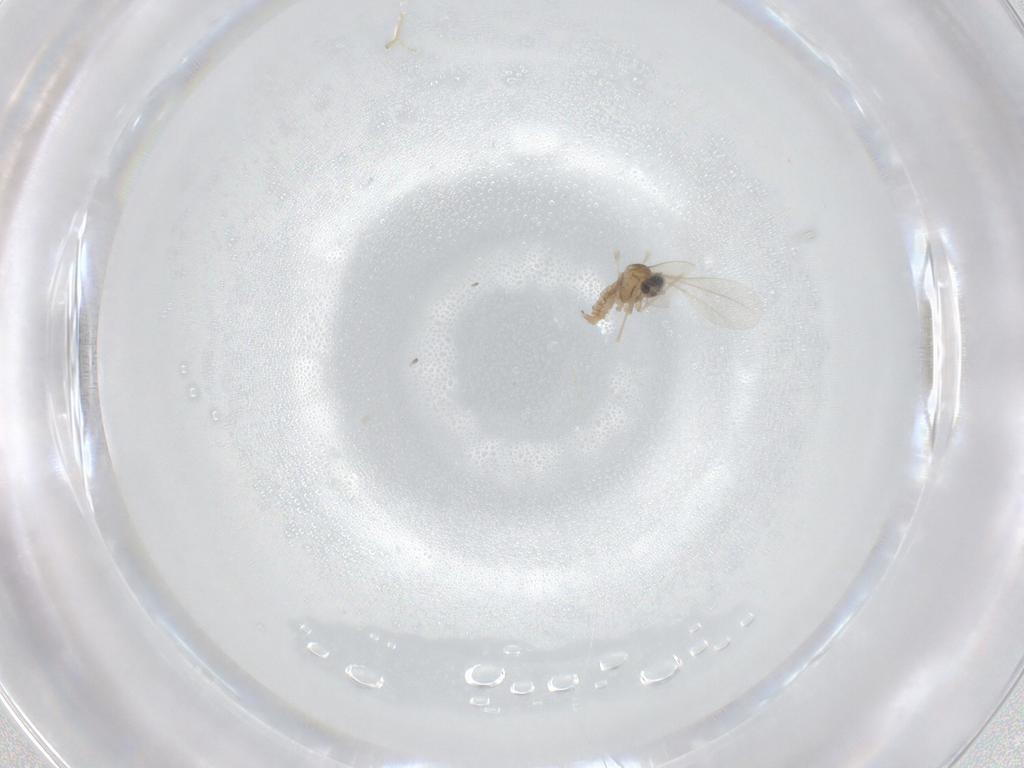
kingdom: Animalia
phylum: Arthropoda
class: Insecta
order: Diptera
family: Cecidomyiidae
